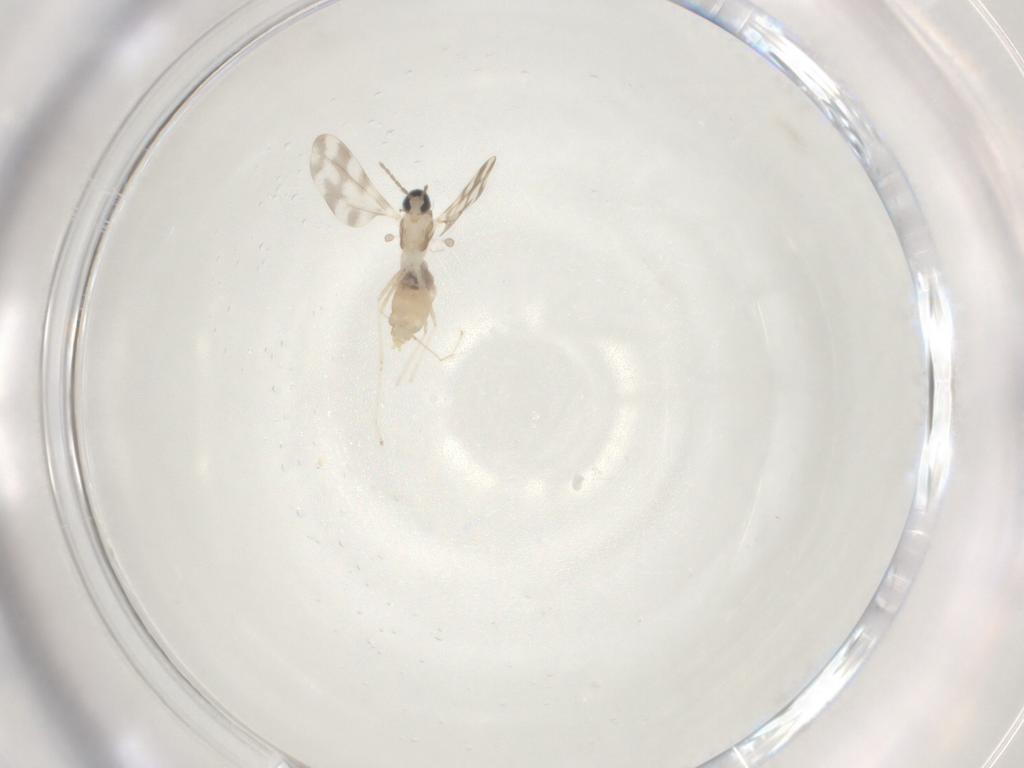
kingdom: Animalia
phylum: Arthropoda
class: Insecta
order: Diptera
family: Cecidomyiidae
